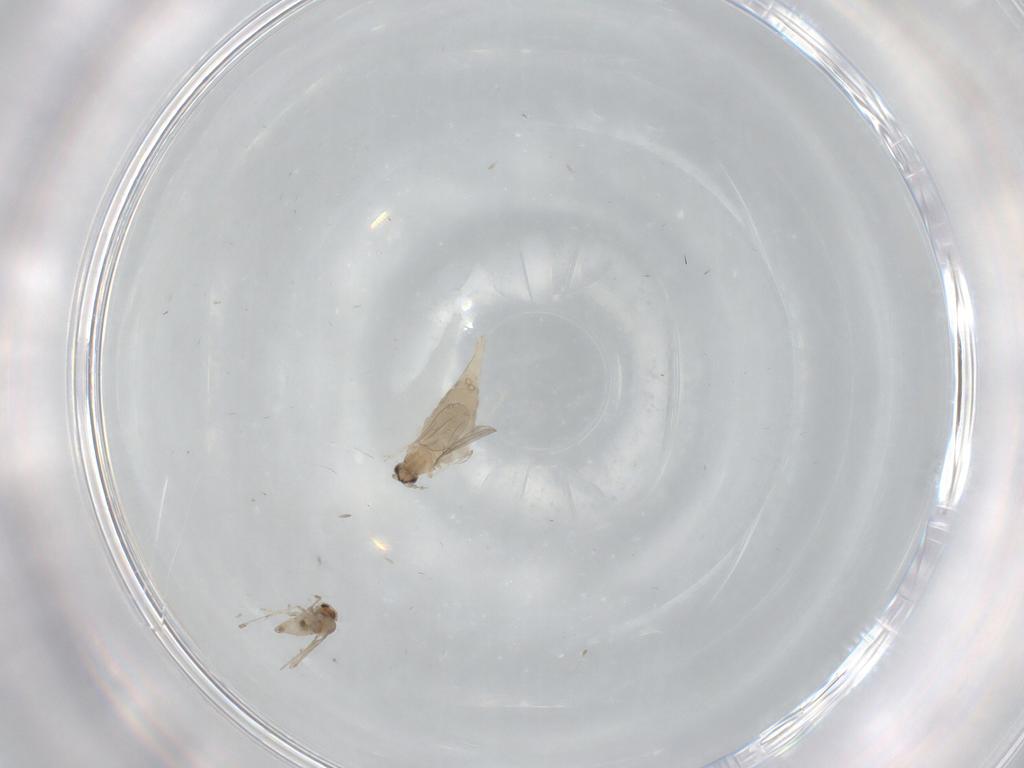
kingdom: Animalia
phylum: Arthropoda
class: Insecta
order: Diptera
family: Cecidomyiidae
